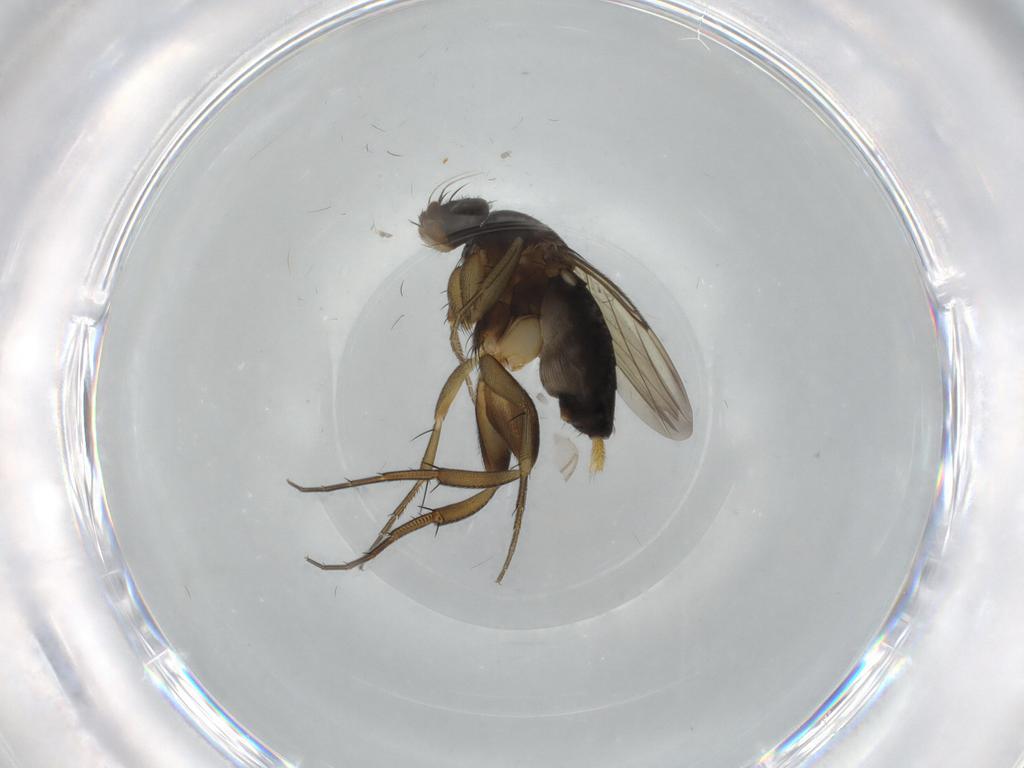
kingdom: Animalia
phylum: Arthropoda
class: Insecta
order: Diptera
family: Phoridae
